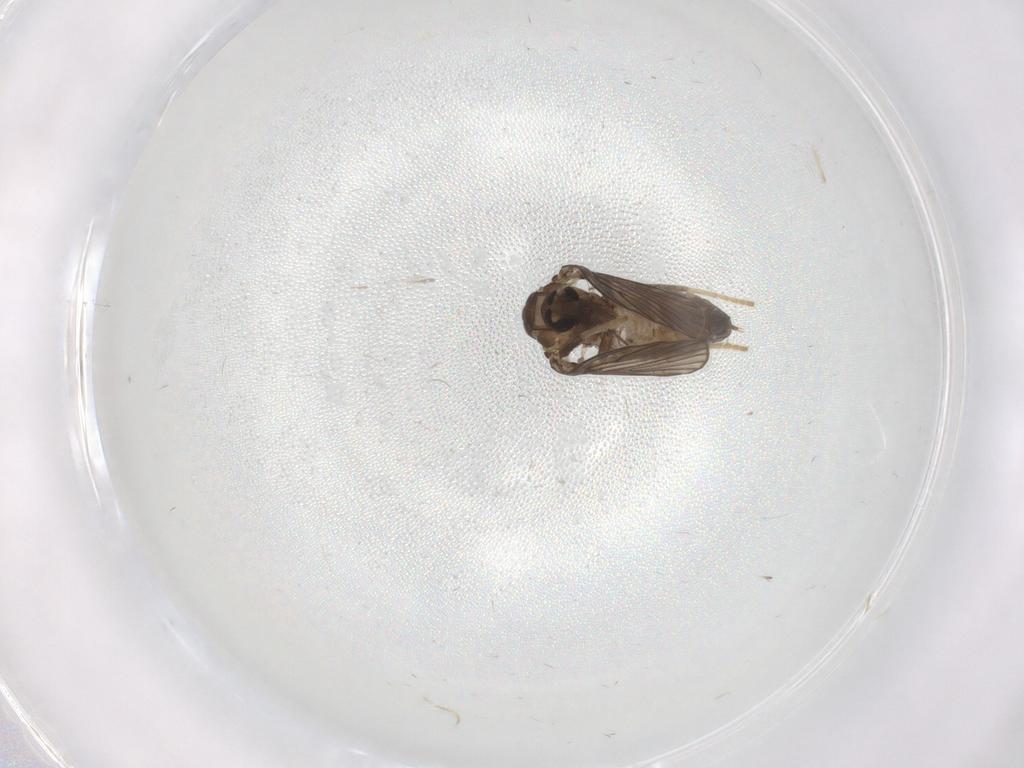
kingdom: Animalia
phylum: Arthropoda
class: Insecta
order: Diptera
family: Psychodidae
